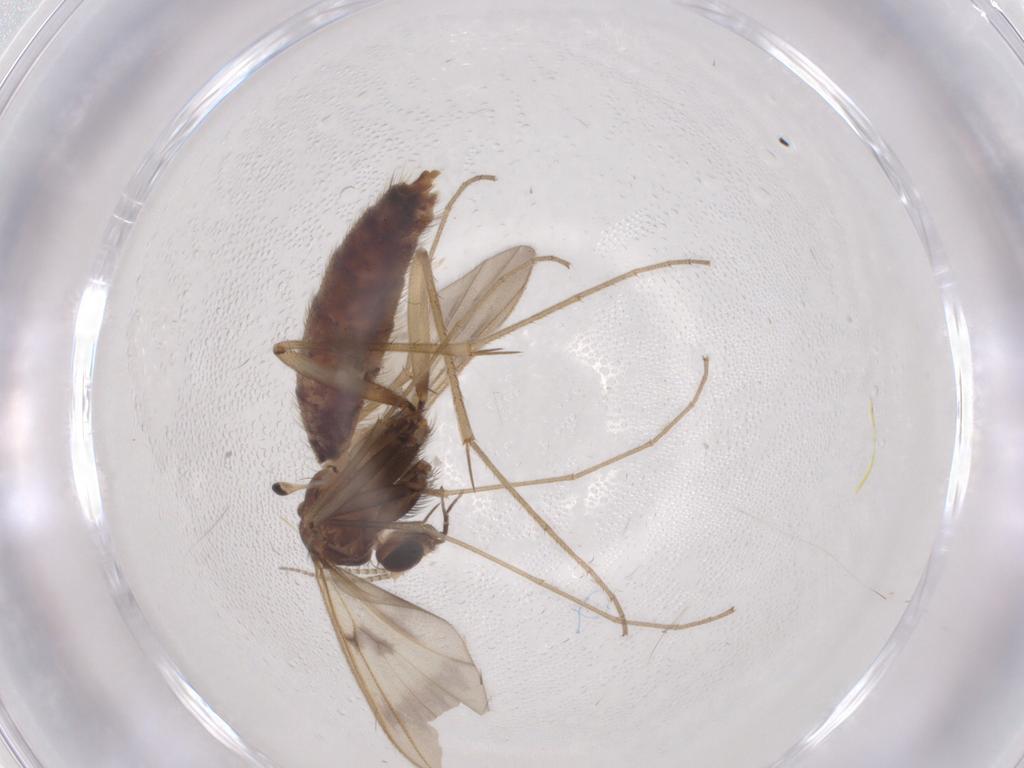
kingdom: Animalia
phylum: Arthropoda
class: Insecta
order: Diptera
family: Mycetophilidae
